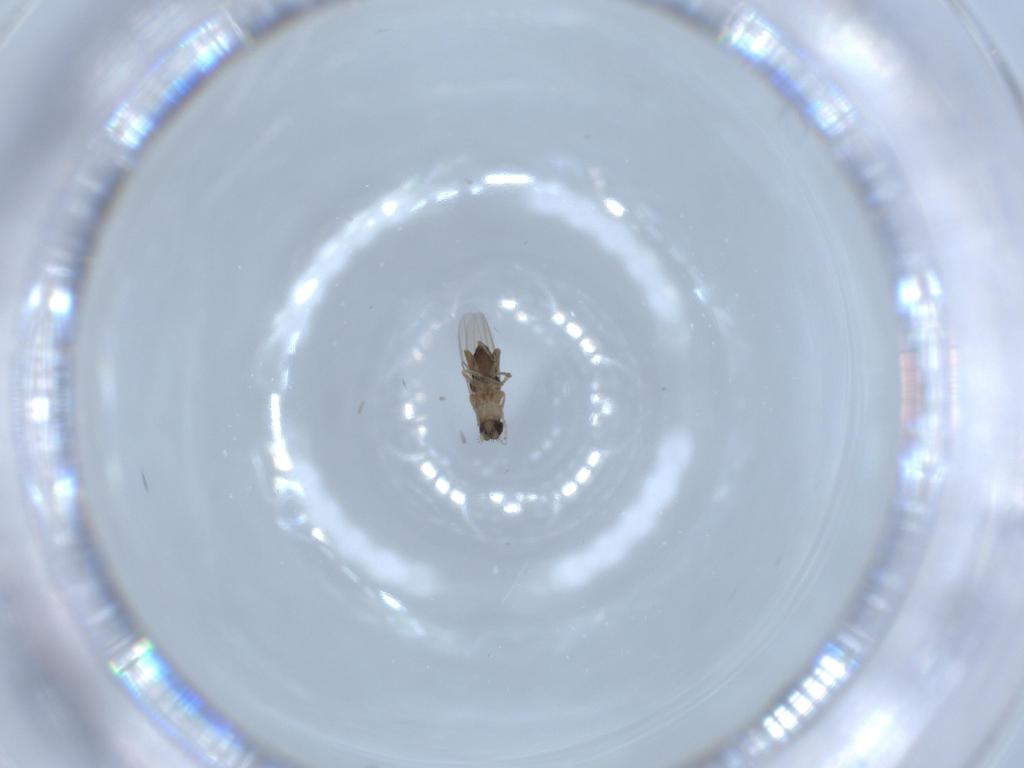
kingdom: Animalia
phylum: Arthropoda
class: Insecta
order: Diptera
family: Phoridae
